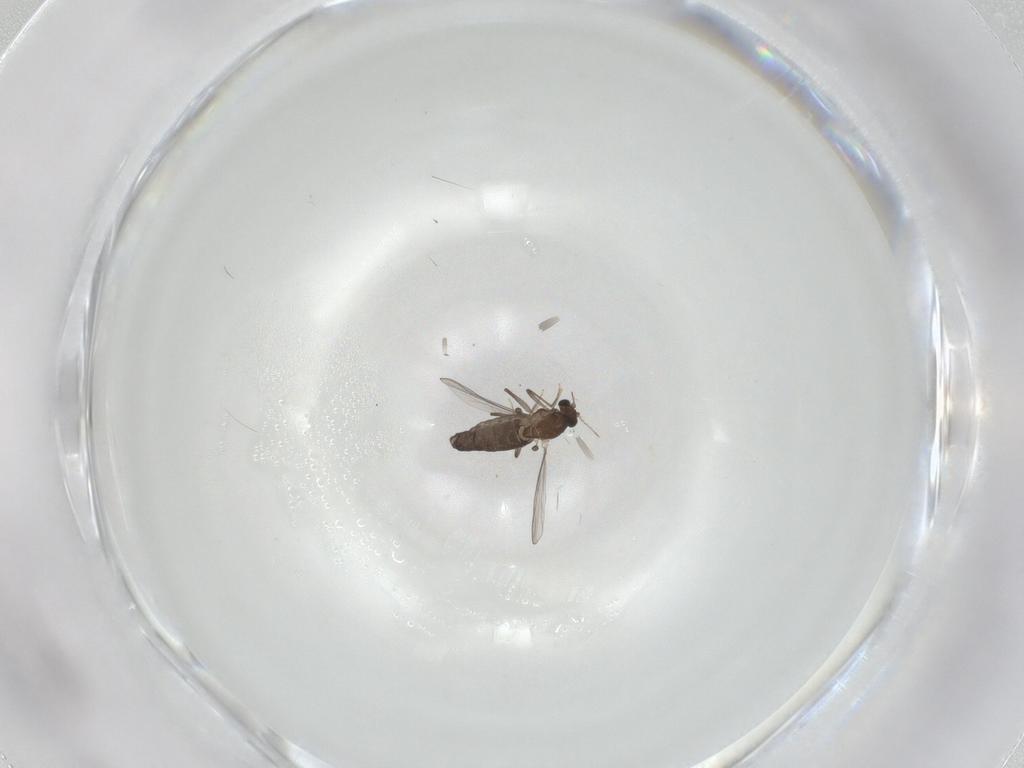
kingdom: Animalia
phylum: Arthropoda
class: Insecta
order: Diptera
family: Chironomidae
